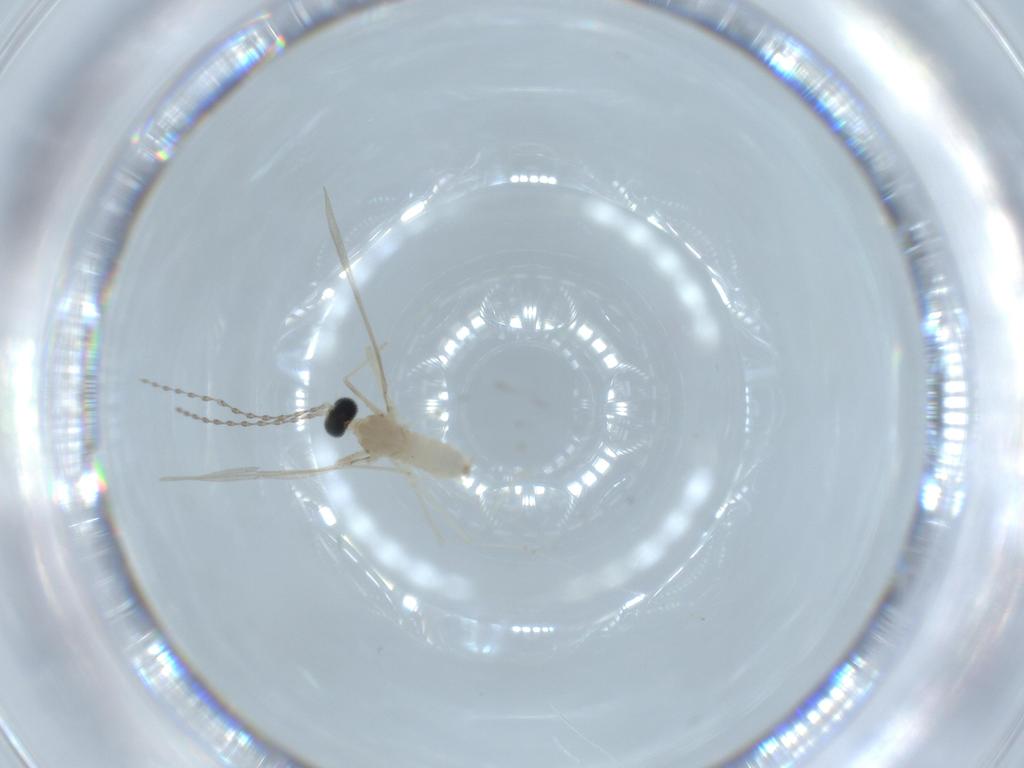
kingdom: Animalia
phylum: Arthropoda
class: Insecta
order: Diptera
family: Cecidomyiidae
